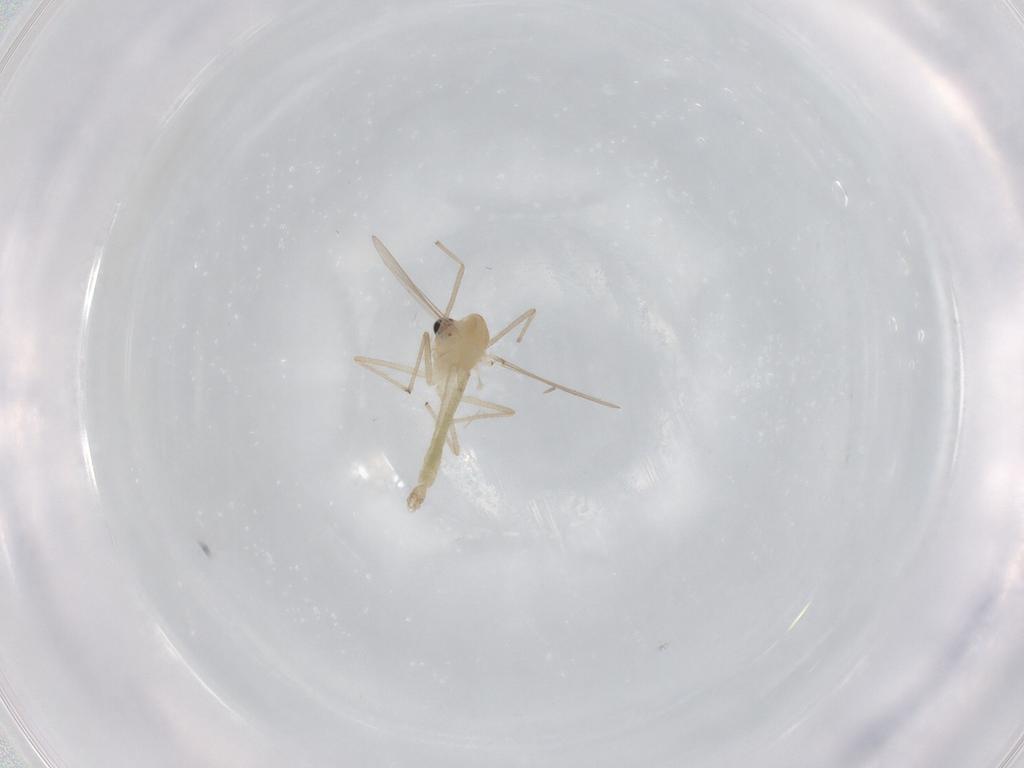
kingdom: Animalia
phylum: Arthropoda
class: Insecta
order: Diptera
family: Chironomidae
